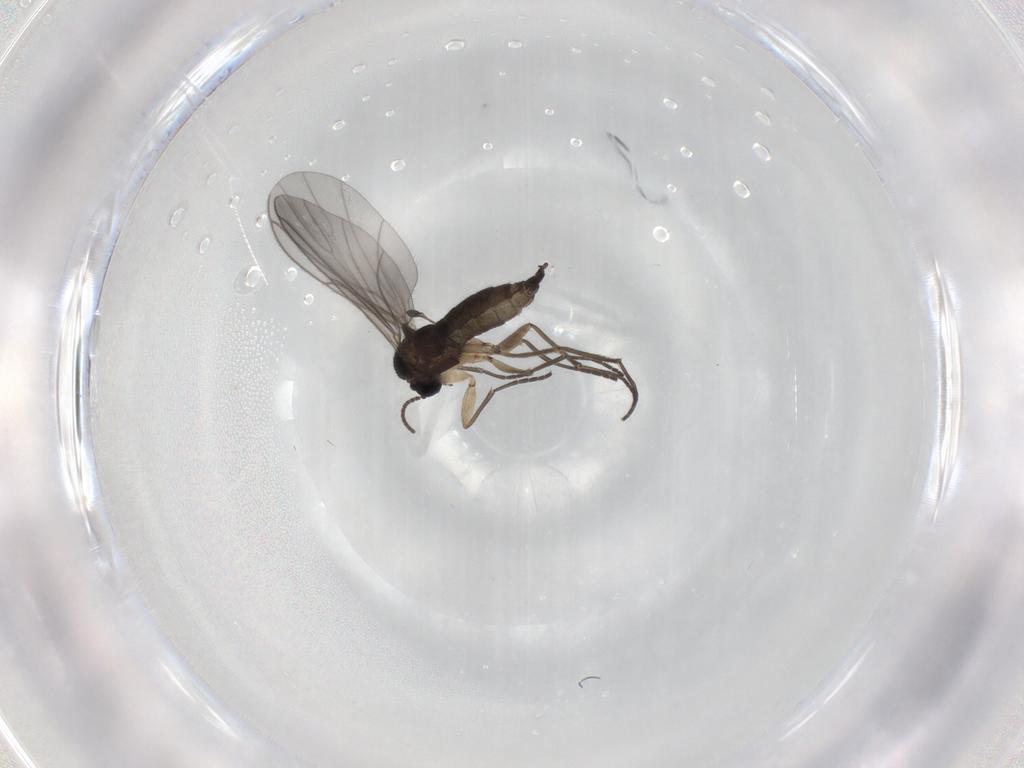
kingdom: Animalia
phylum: Arthropoda
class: Insecta
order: Diptera
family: Sciaridae
